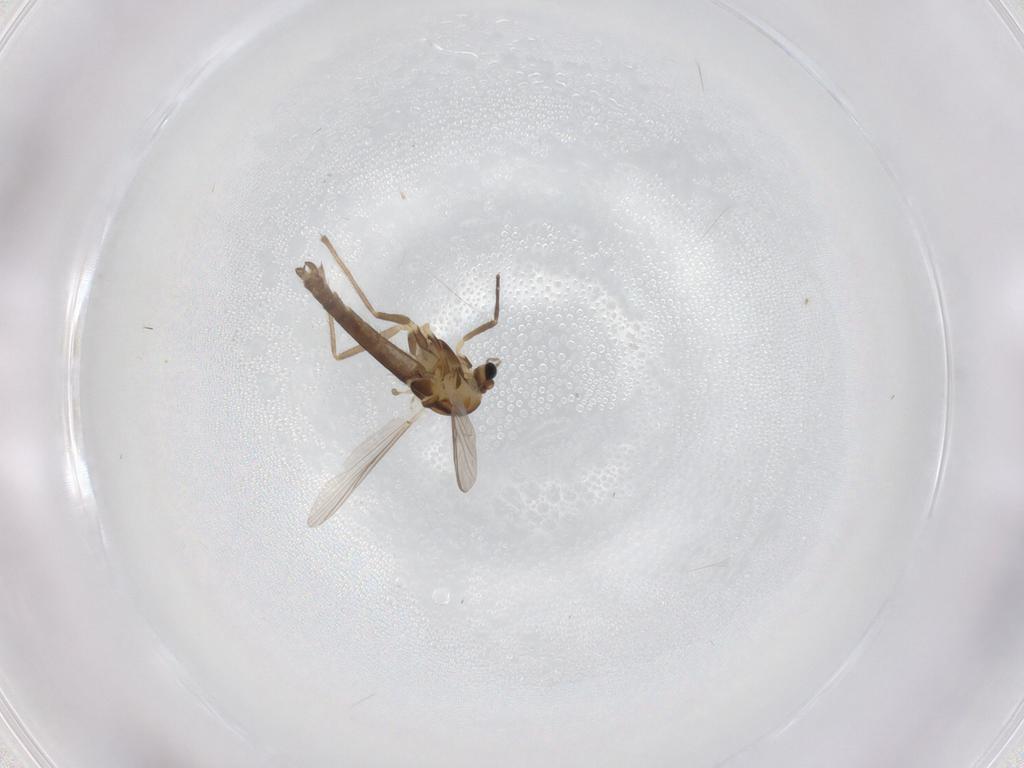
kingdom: Animalia
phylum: Arthropoda
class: Insecta
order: Diptera
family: Chironomidae
